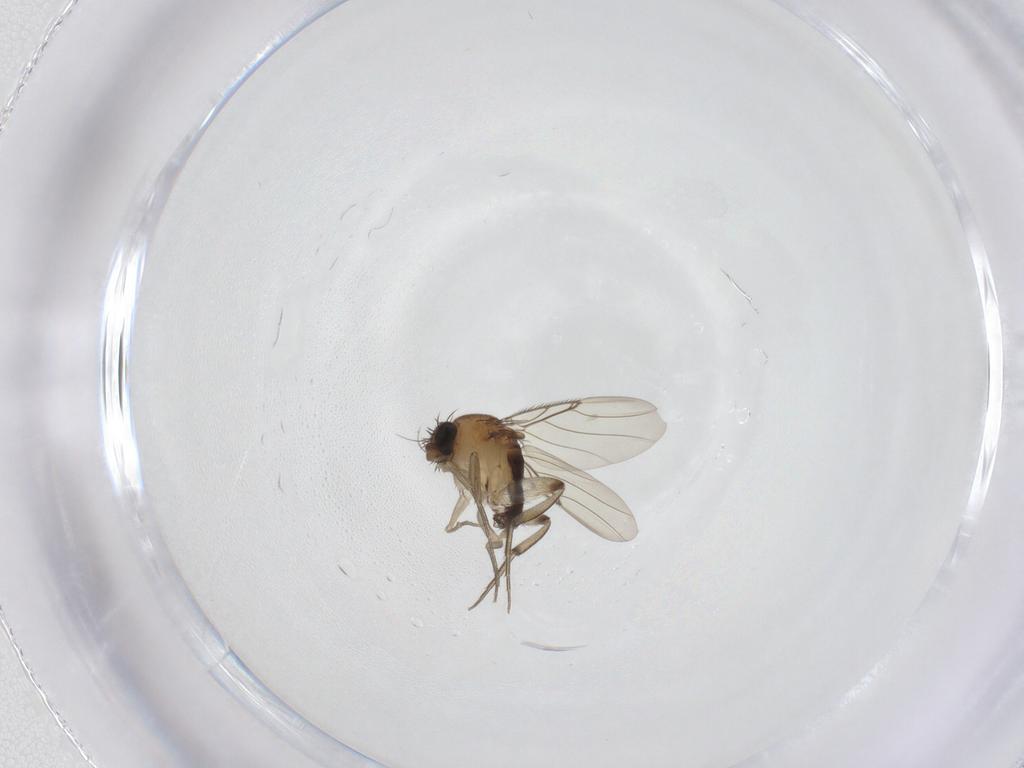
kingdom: Animalia
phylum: Arthropoda
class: Insecta
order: Diptera
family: Phoridae
